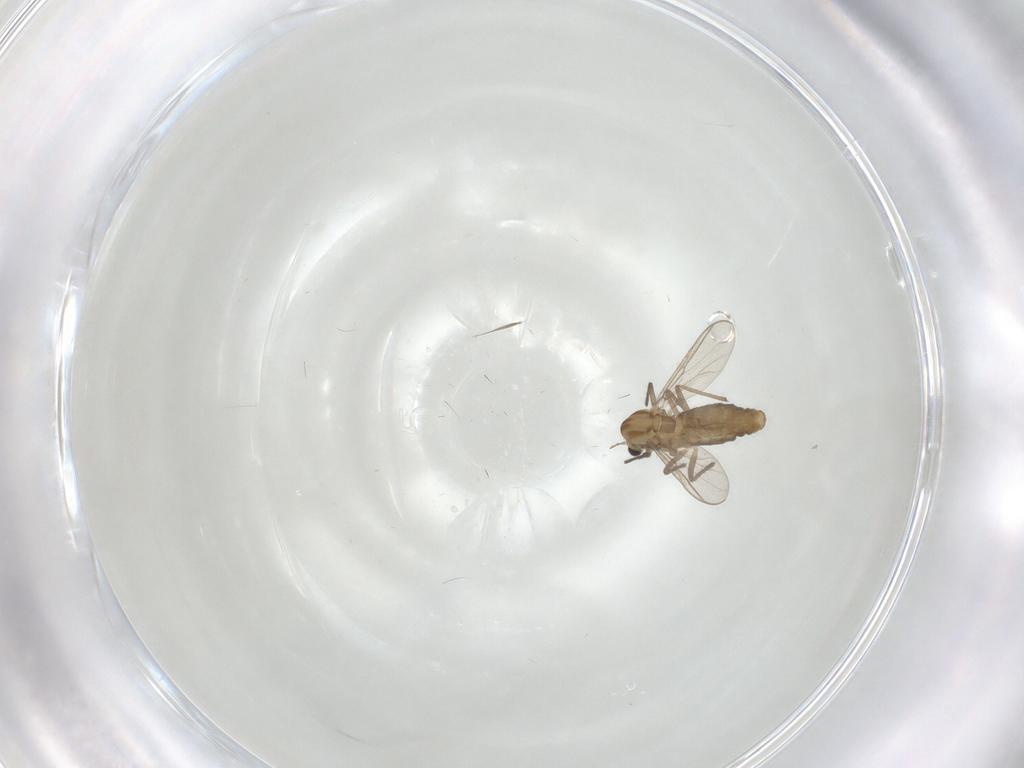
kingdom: Animalia
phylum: Arthropoda
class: Insecta
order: Diptera
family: Chironomidae
